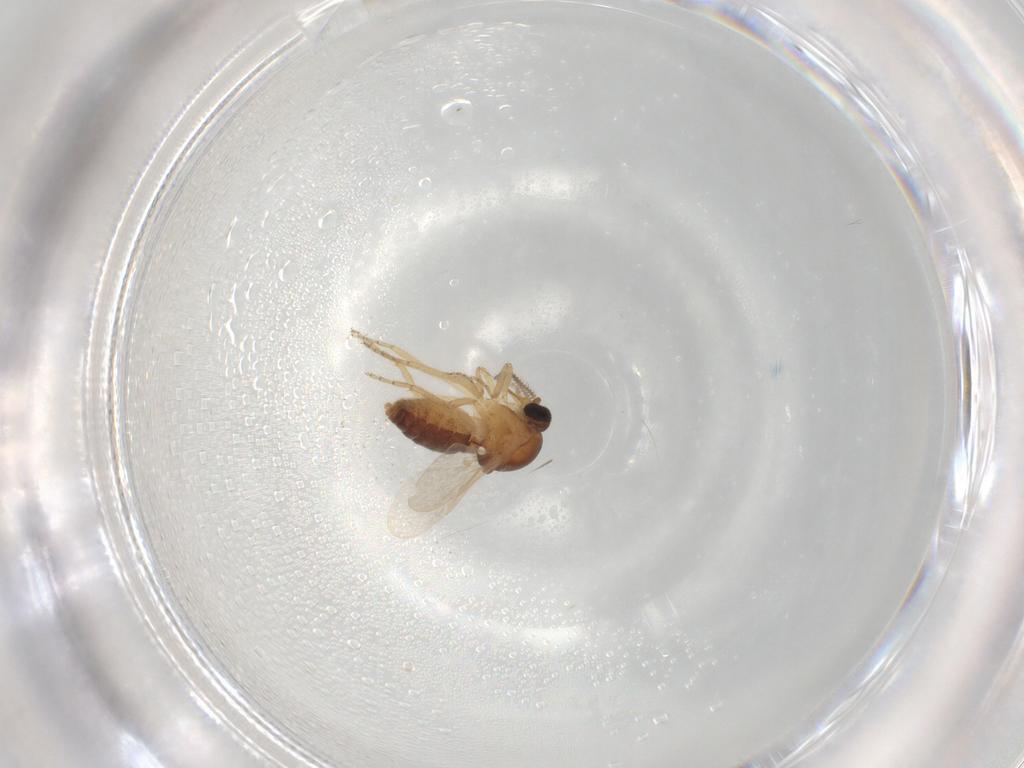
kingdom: Animalia
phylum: Arthropoda
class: Insecta
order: Diptera
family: Ceratopogonidae
